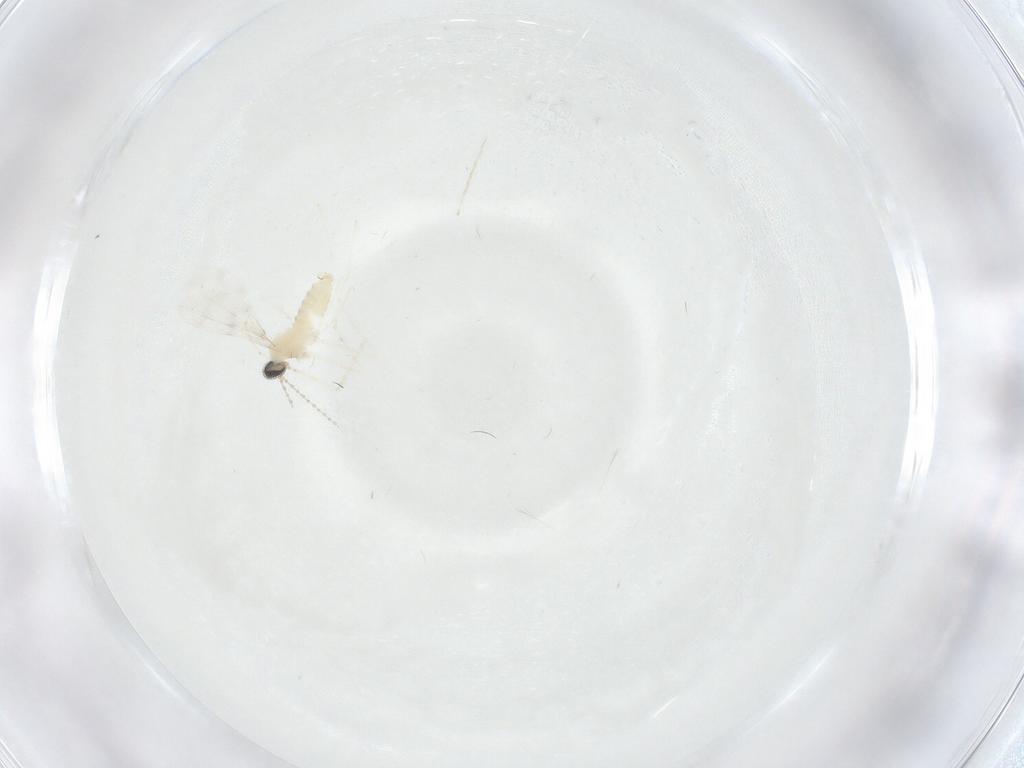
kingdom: Animalia
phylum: Arthropoda
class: Insecta
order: Diptera
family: Cecidomyiidae
